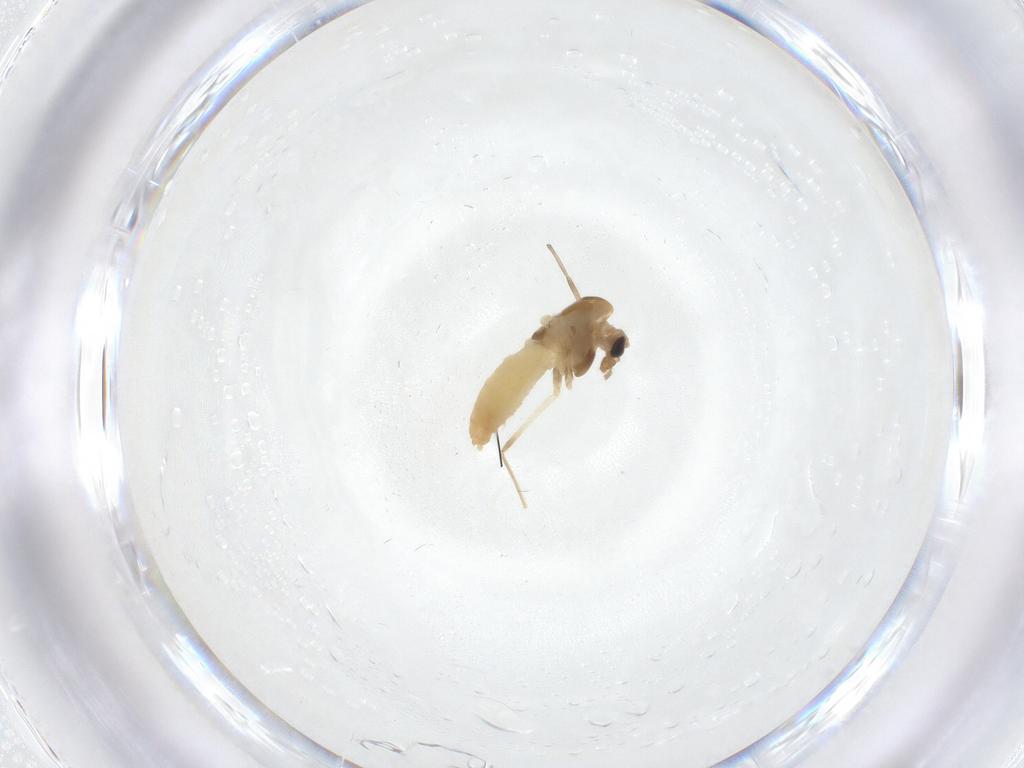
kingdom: Animalia
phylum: Arthropoda
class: Insecta
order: Diptera
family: Chironomidae
